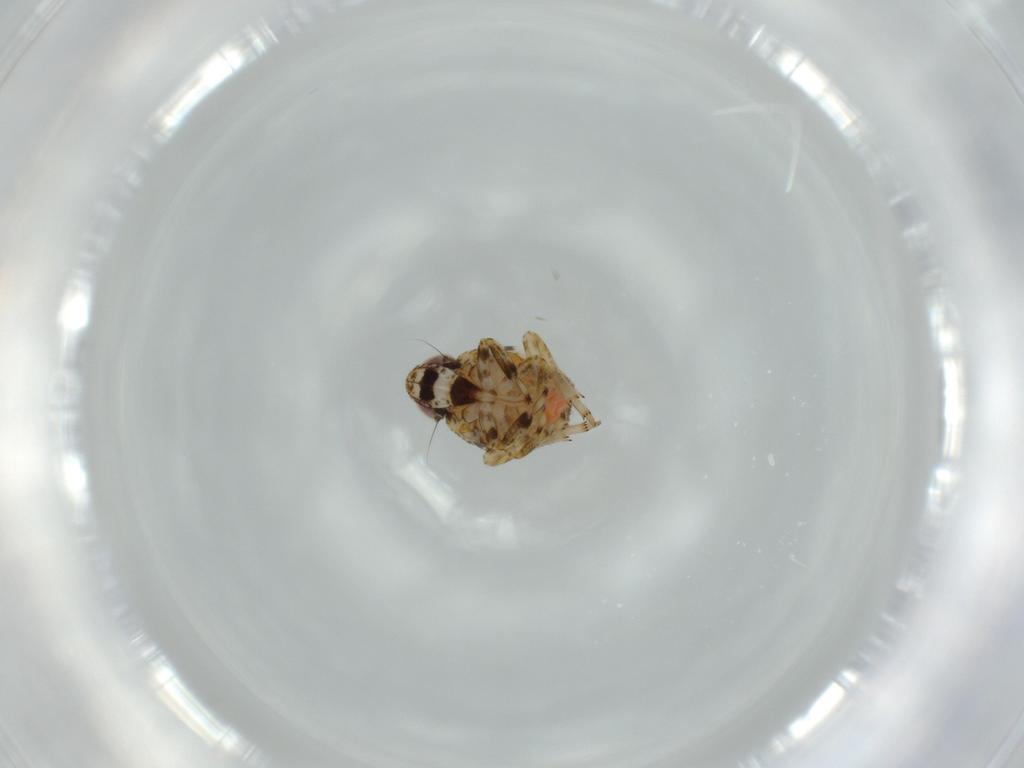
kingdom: Animalia
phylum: Arthropoda
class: Insecta
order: Hemiptera
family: Issidae
